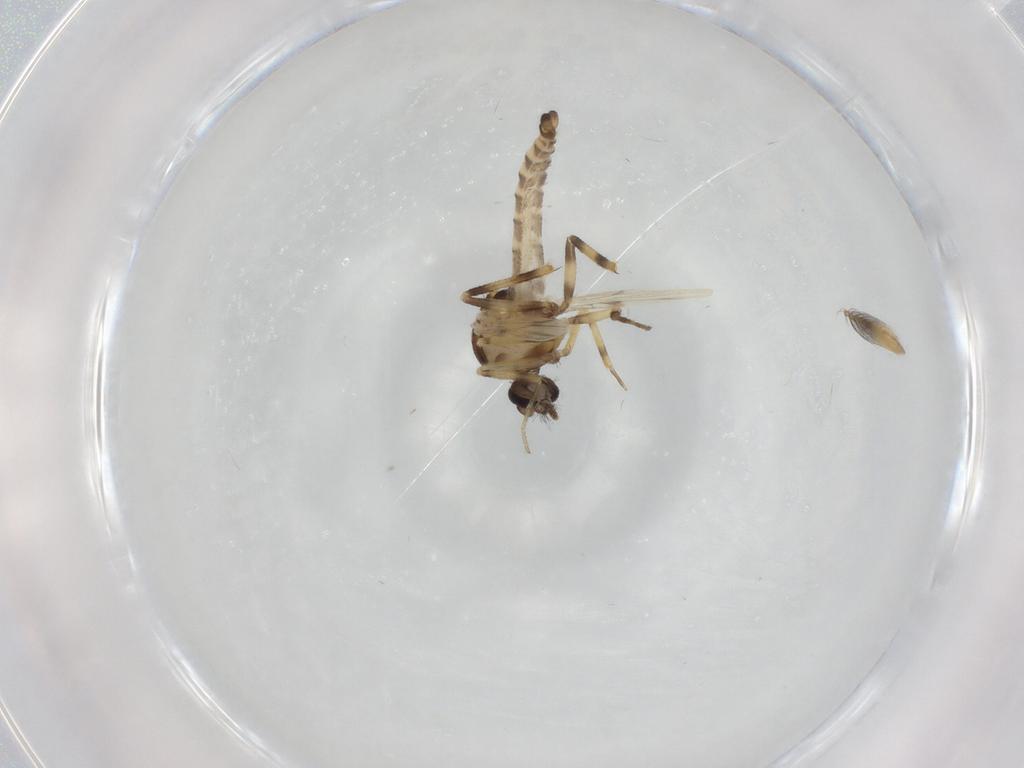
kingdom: Animalia
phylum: Arthropoda
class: Insecta
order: Diptera
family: Ceratopogonidae
